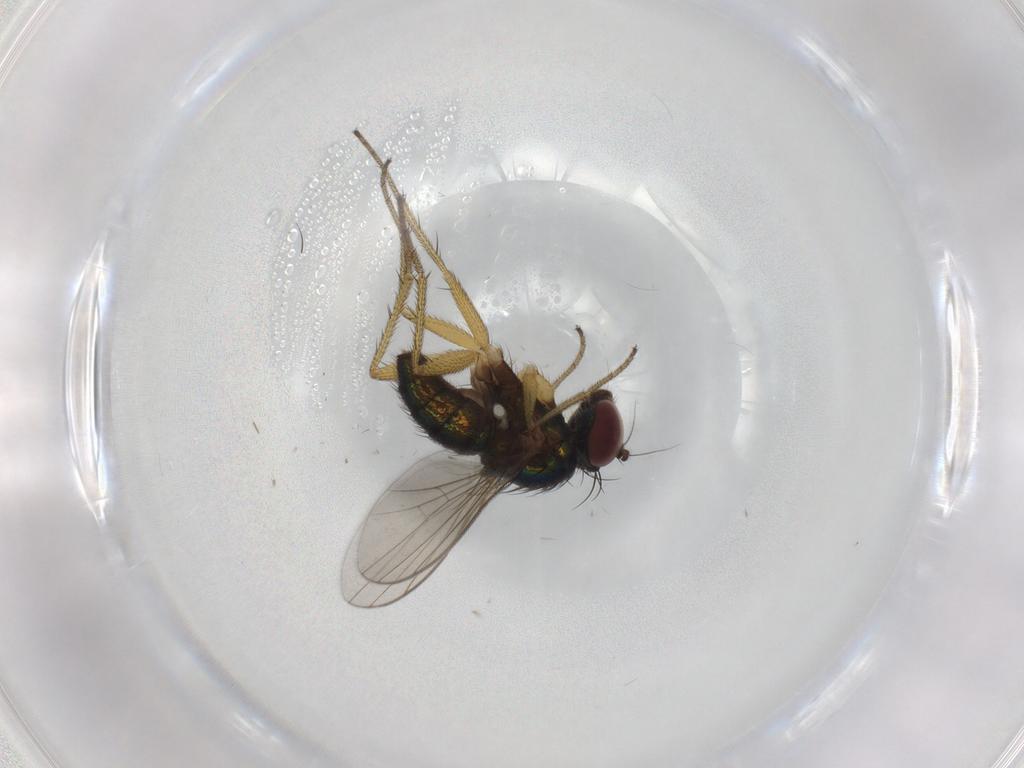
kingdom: Animalia
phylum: Arthropoda
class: Insecta
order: Diptera
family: Dolichopodidae
